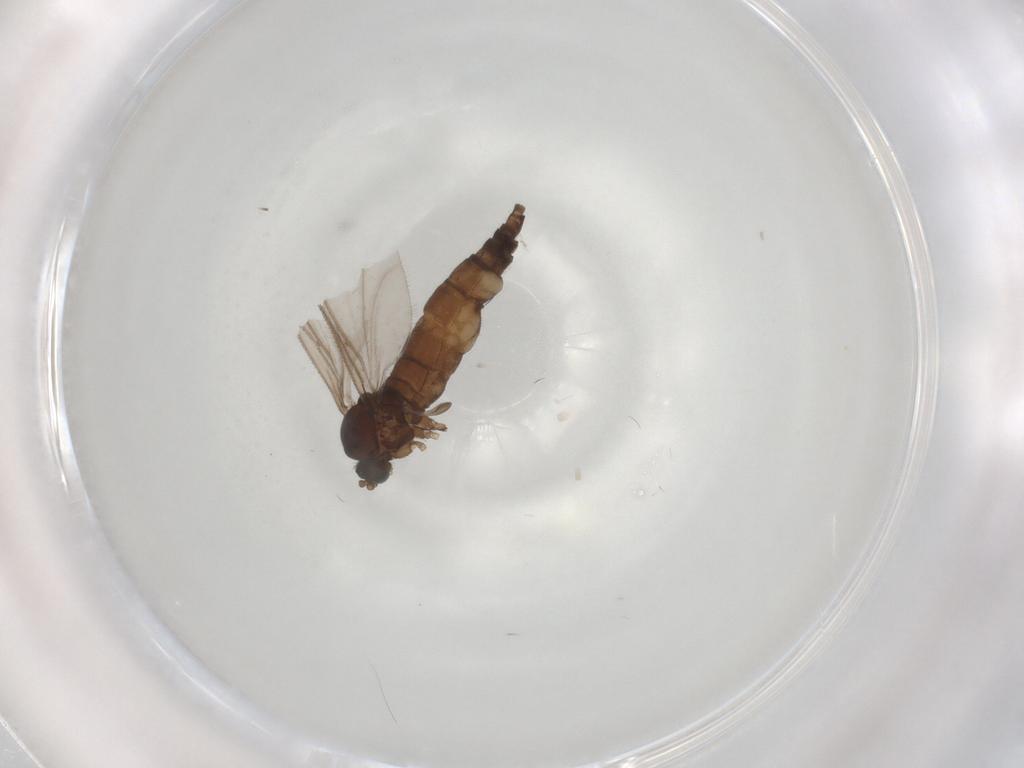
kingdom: Animalia
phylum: Arthropoda
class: Insecta
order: Diptera
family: Sciaridae
